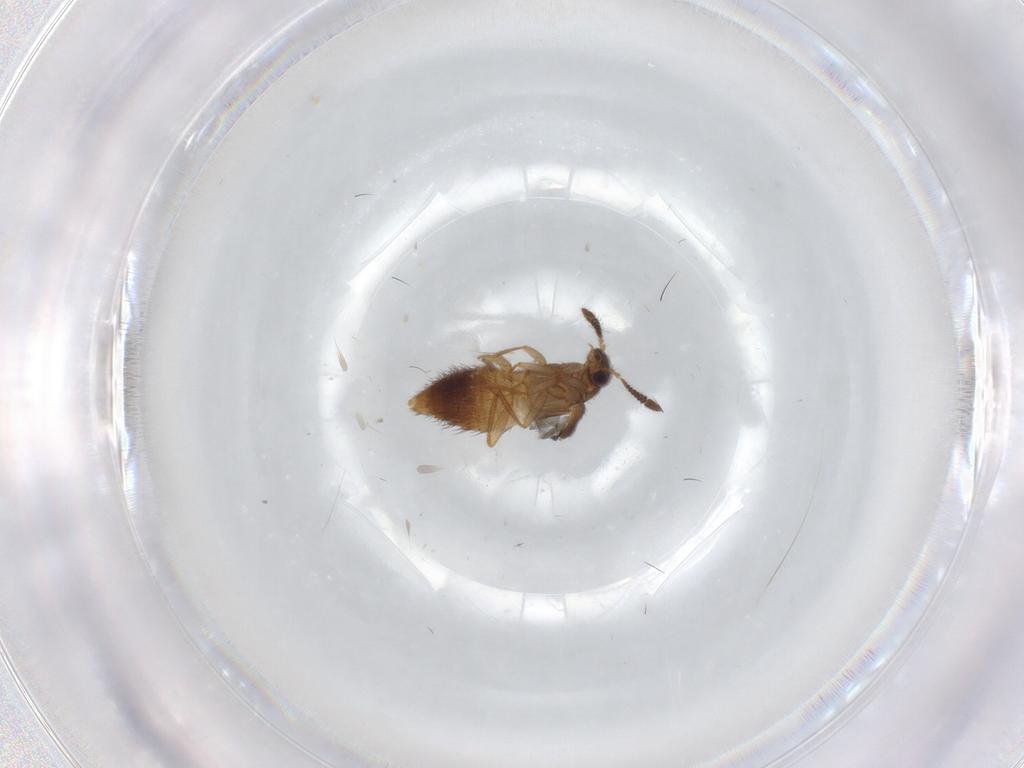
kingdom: Animalia
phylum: Arthropoda
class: Insecta
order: Coleoptera
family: Staphylinidae
